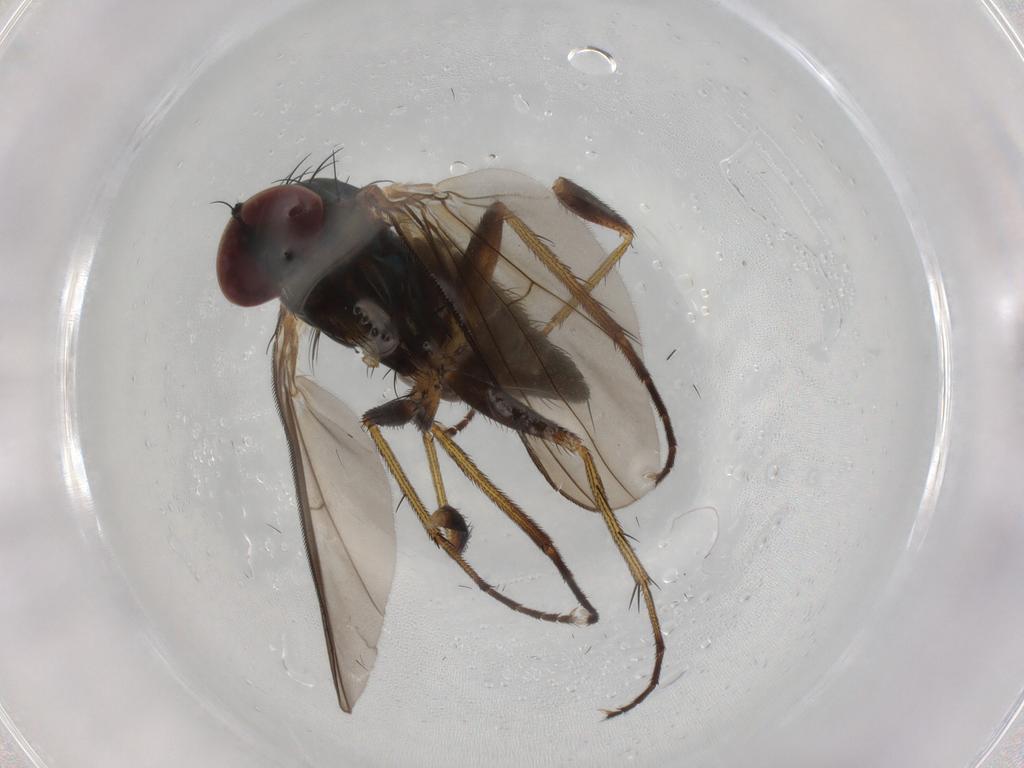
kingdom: Animalia
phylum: Arthropoda
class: Insecta
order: Diptera
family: Dolichopodidae
